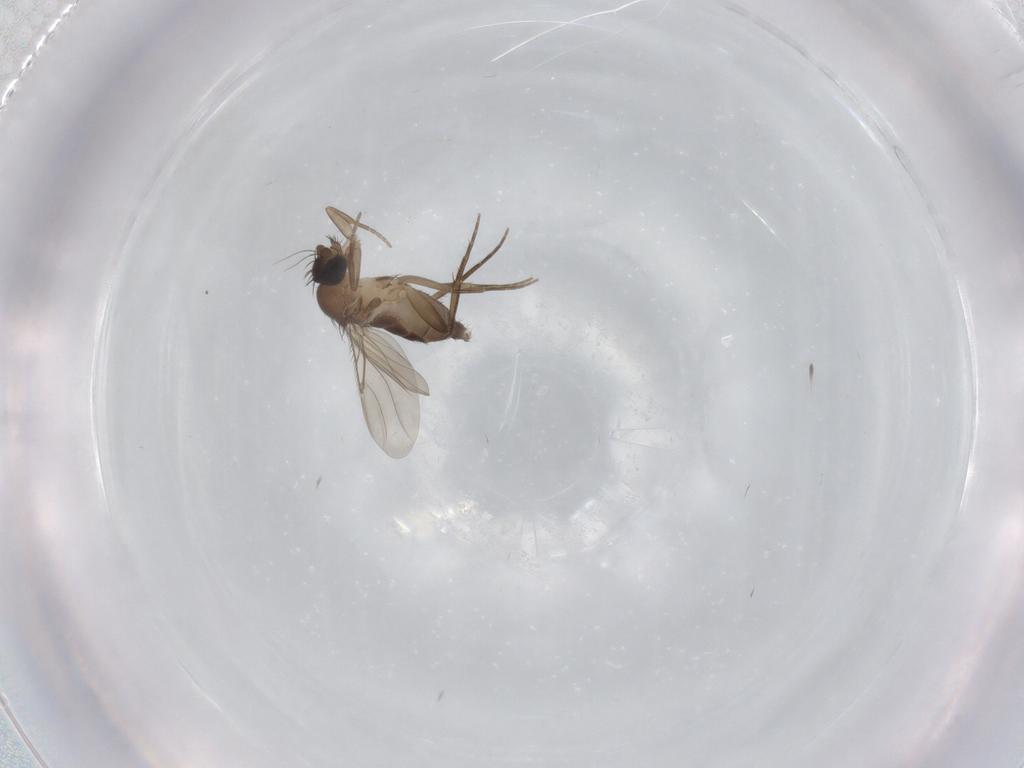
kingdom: Animalia
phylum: Arthropoda
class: Insecta
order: Diptera
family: Phoridae
